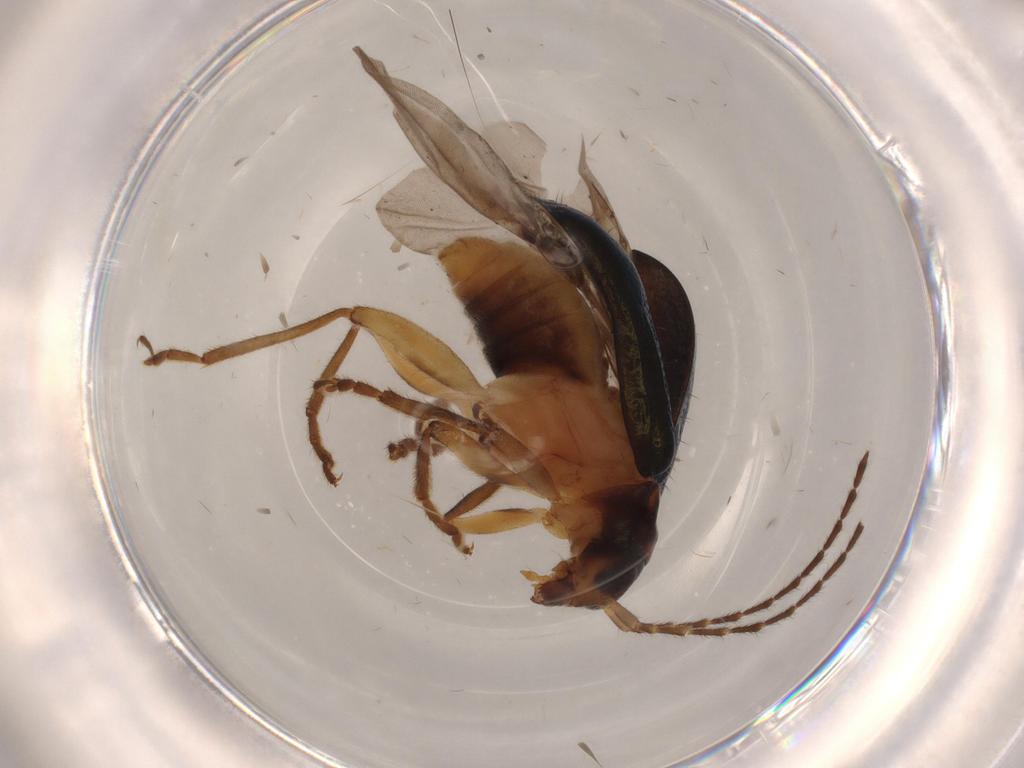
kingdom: Animalia
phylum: Arthropoda
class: Insecta
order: Coleoptera
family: Chrysomelidae
